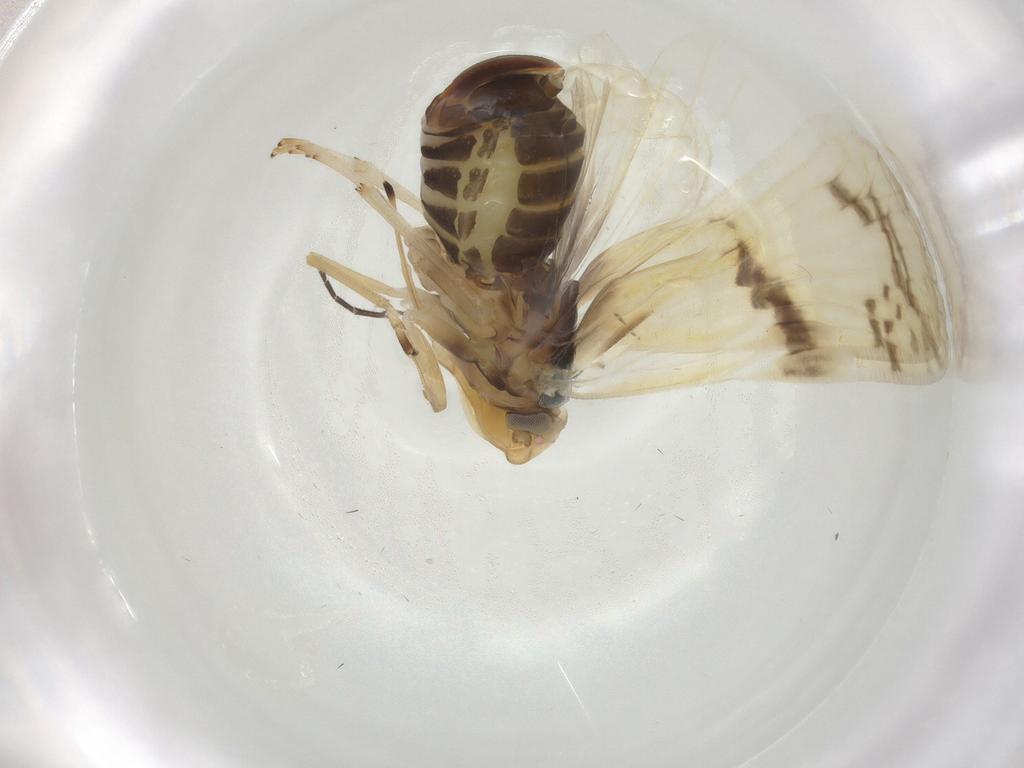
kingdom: Animalia
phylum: Arthropoda
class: Insecta
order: Hemiptera
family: Cixiidae
